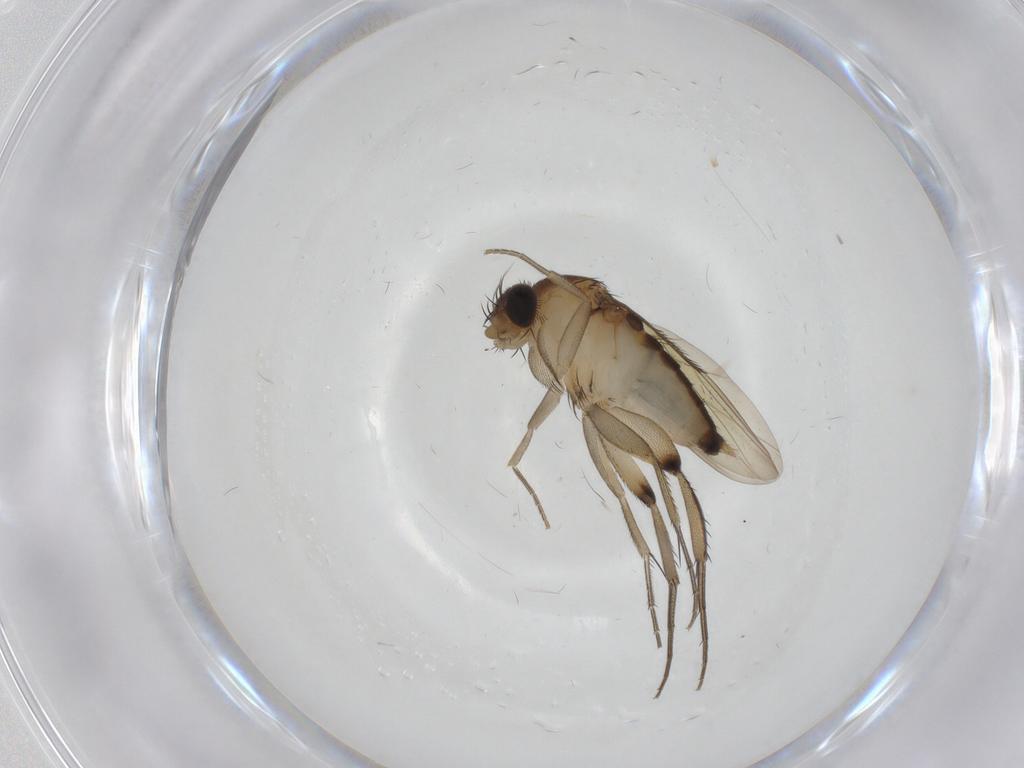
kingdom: Animalia
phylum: Arthropoda
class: Insecta
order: Diptera
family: Phoridae
